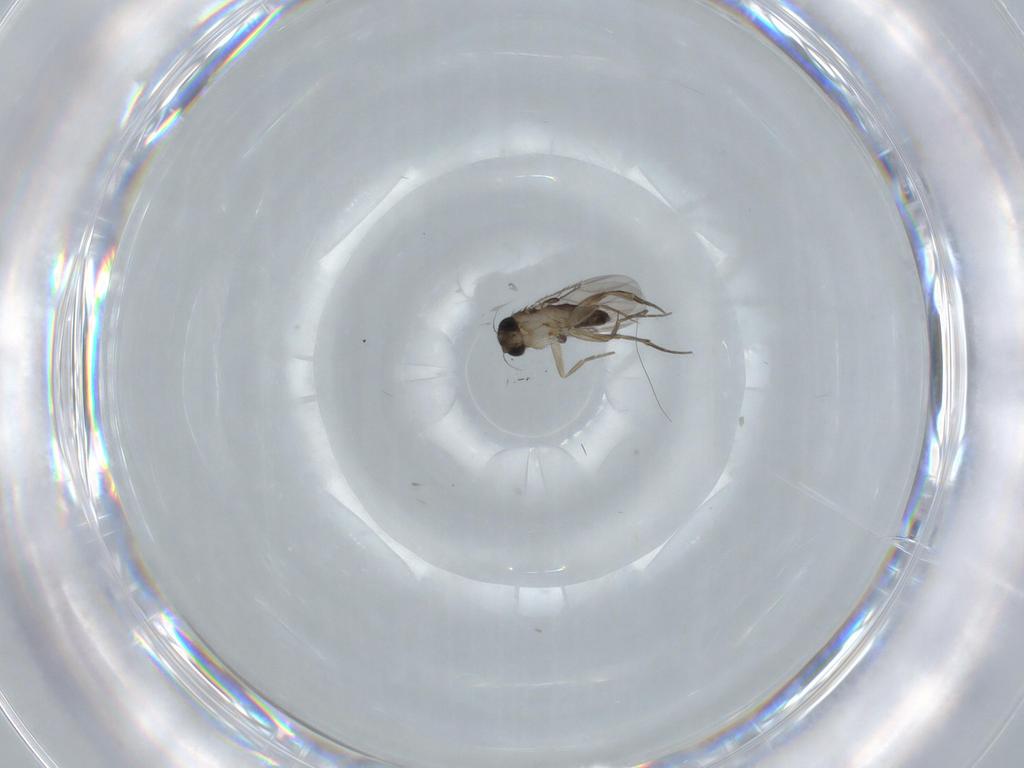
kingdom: Animalia
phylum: Arthropoda
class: Insecta
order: Diptera
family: Phoridae
